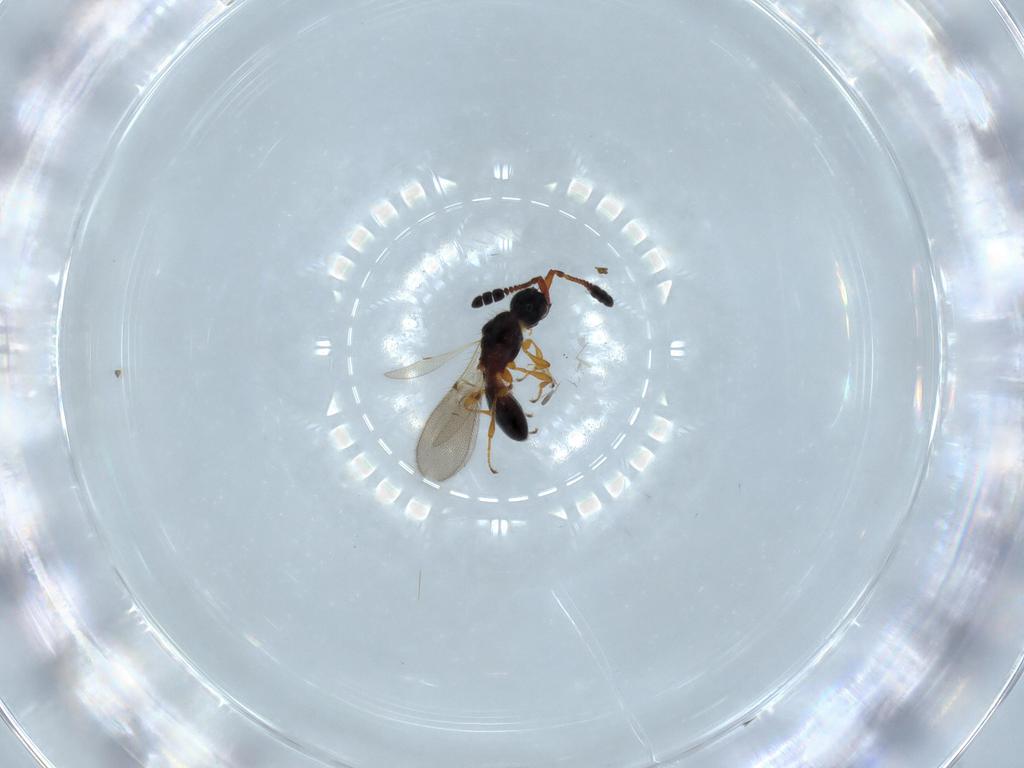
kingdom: Animalia
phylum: Arthropoda
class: Insecta
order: Hymenoptera
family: Diapriidae
